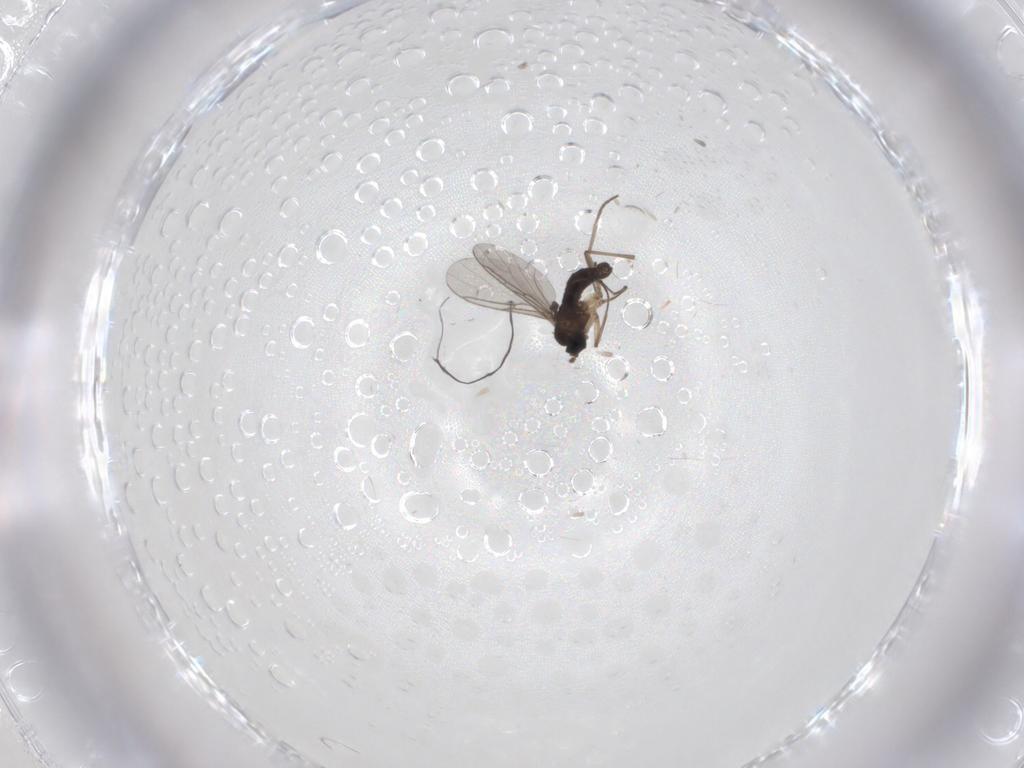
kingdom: Animalia
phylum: Arthropoda
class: Insecta
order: Diptera
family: Sciaridae
